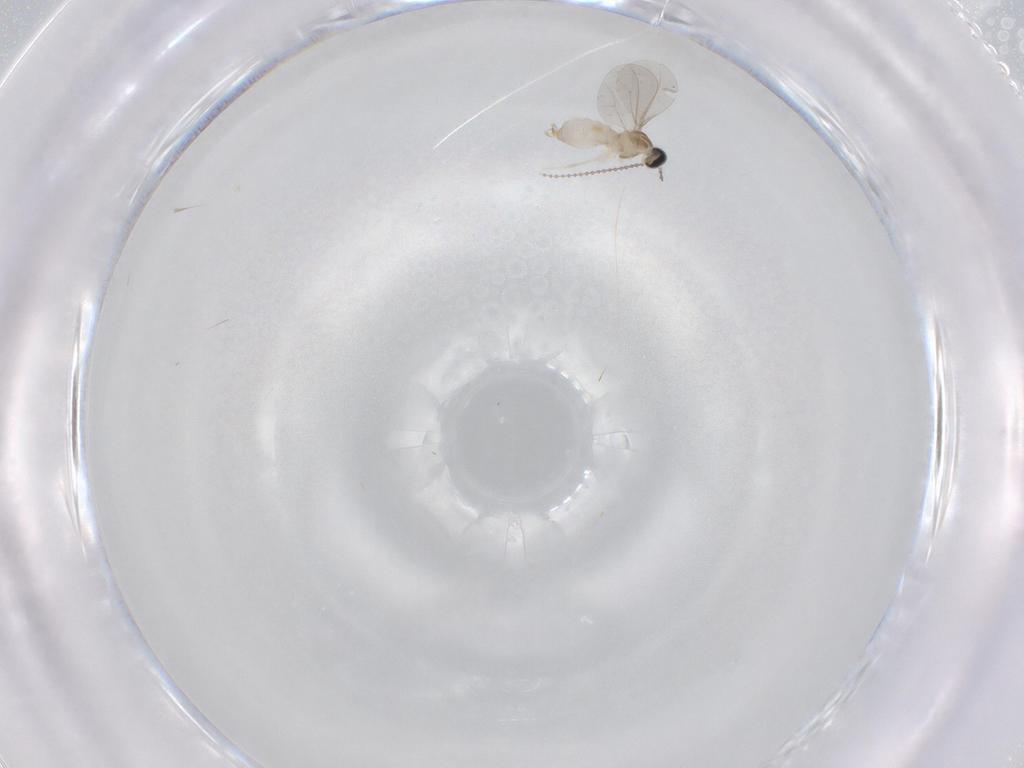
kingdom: Animalia
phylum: Arthropoda
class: Insecta
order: Diptera
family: Cecidomyiidae
